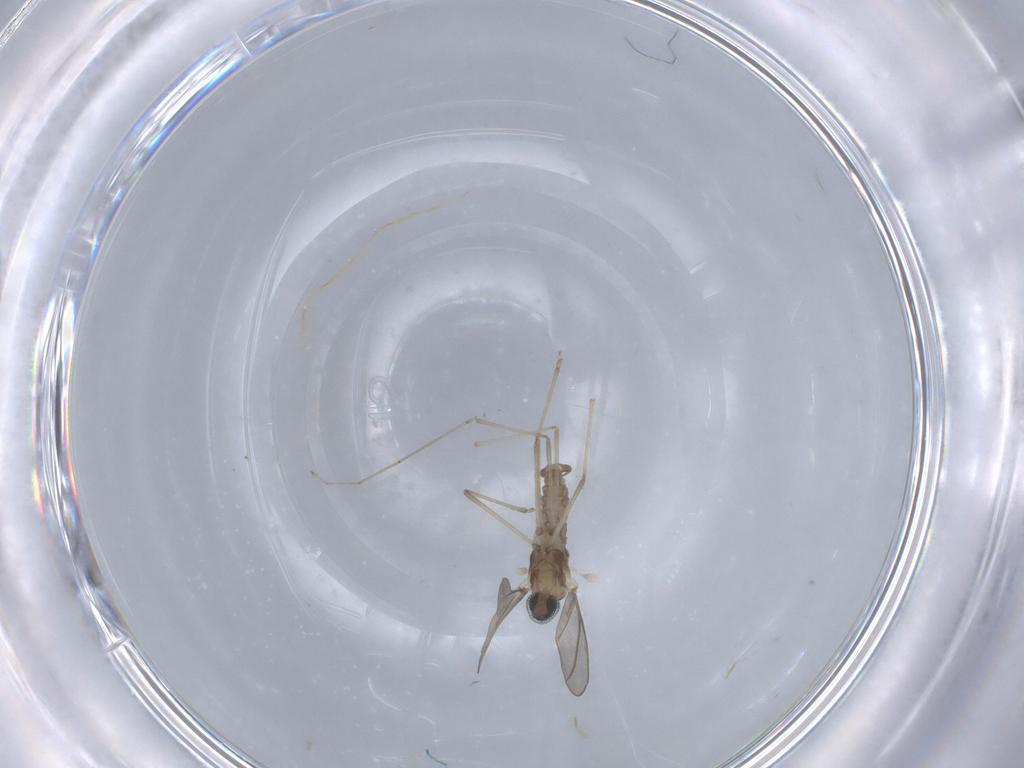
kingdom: Animalia
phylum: Arthropoda
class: Insecta
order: Diptera
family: Cecidomyiidae
